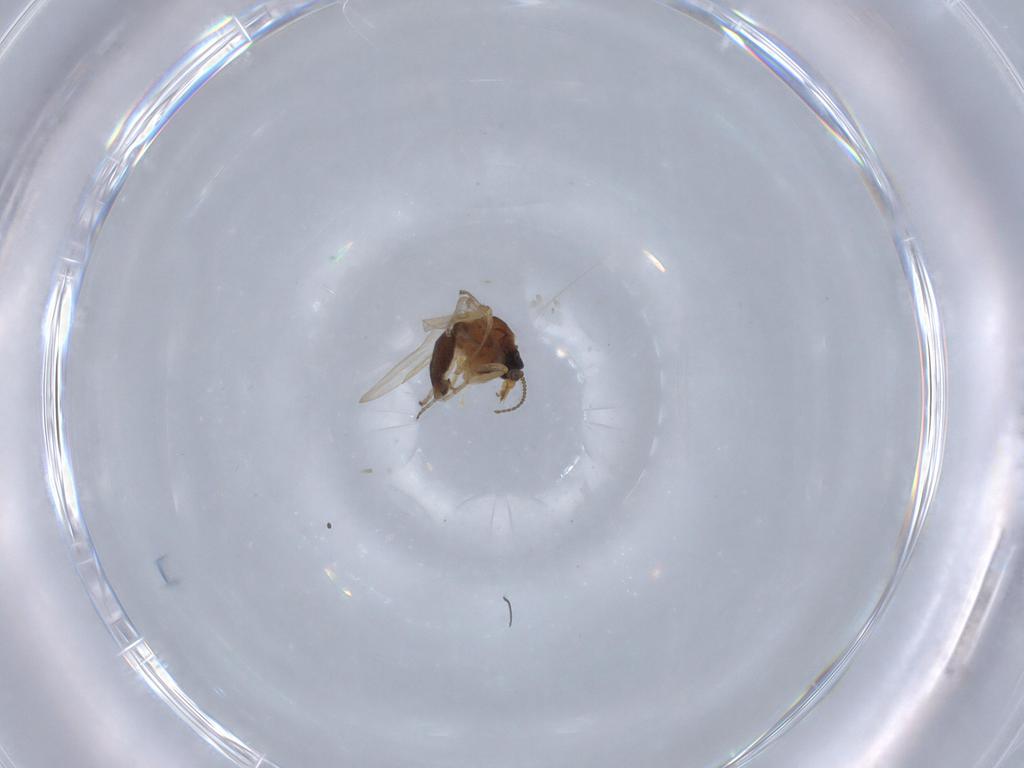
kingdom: Animalia
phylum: Arthropoda
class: Insecta
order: Diptera
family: Ceratopogonidae
